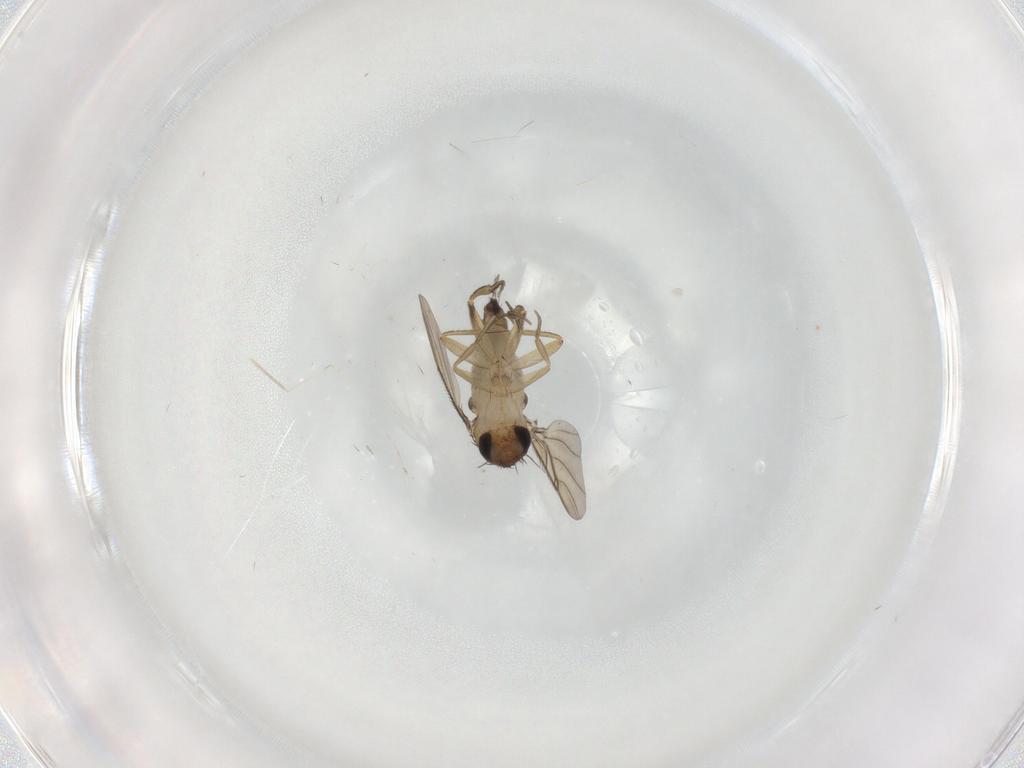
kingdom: Animalia
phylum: Arthropoda
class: Insecta
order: Diptera
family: Phoridae
